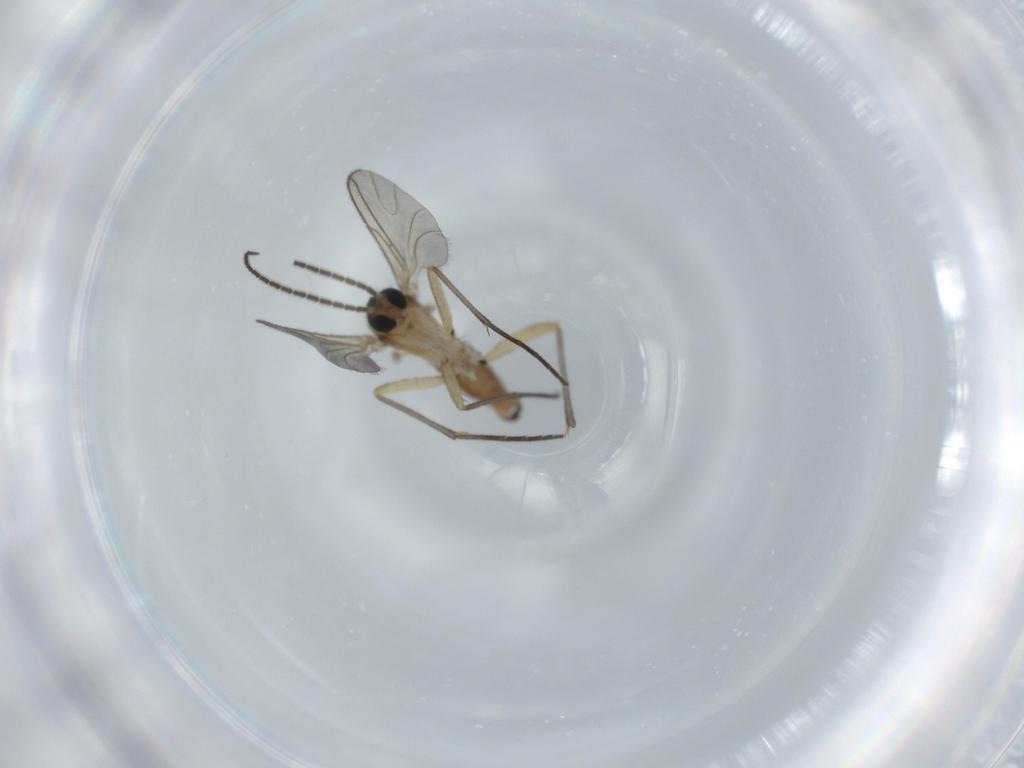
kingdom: Animalia
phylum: Arthropoda
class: Insecta
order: Diptera
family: Sciaridae
